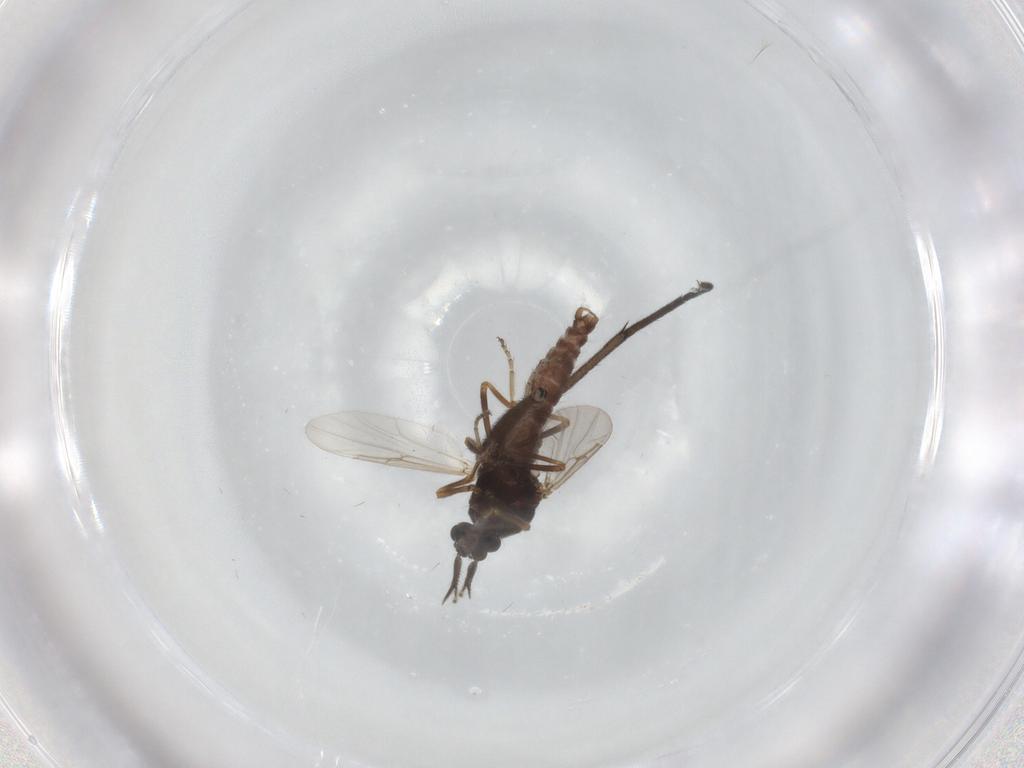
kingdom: Animalia
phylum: Arthropoda
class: Insecta
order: Diptera
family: Ceratopogonidae
